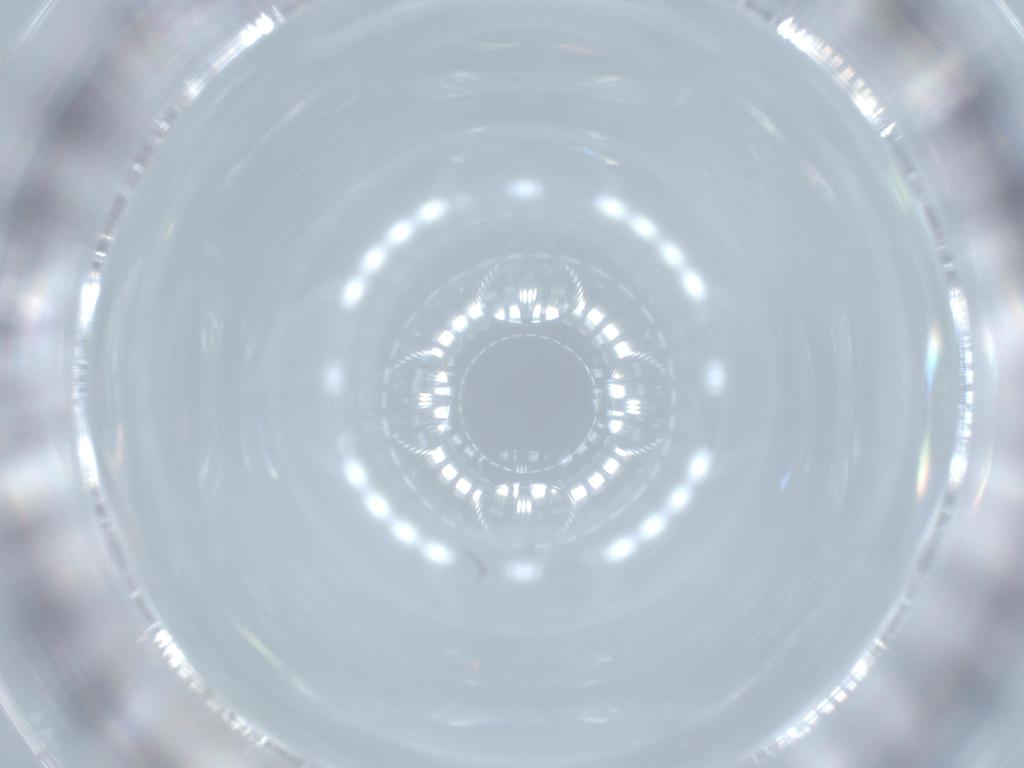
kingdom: Animalia
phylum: Arthropoda
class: Insecta
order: Diptera
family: Cecidomyiidae
